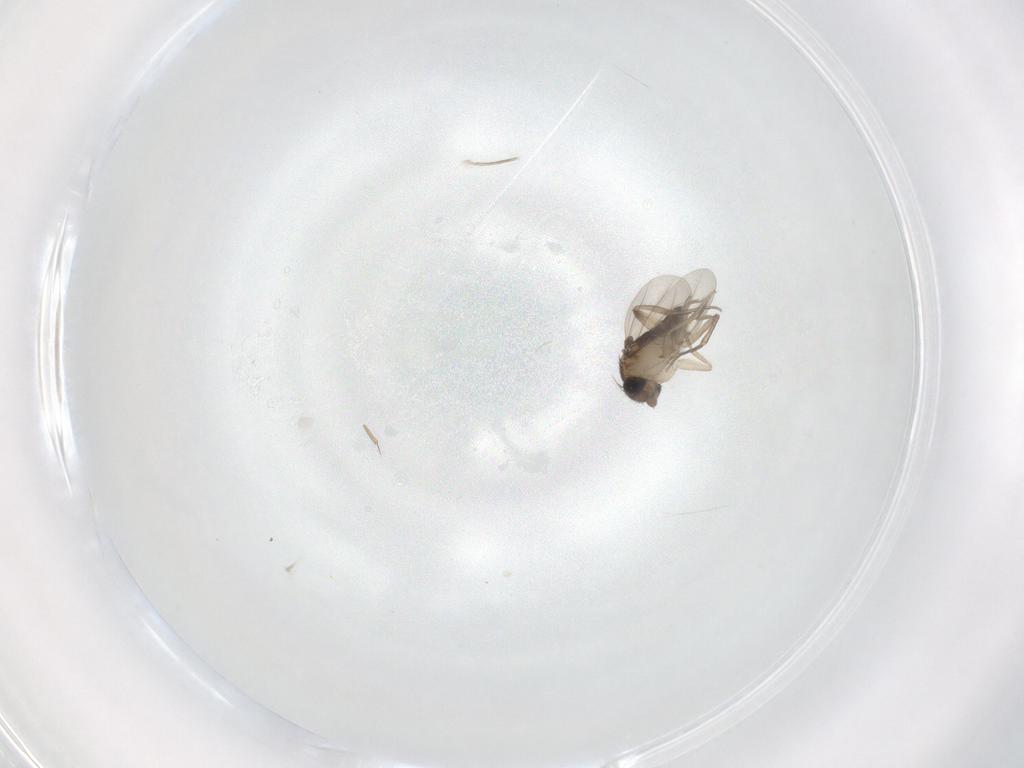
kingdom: Animalia
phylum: Arthropoda
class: Insecta
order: Diptera
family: Phoridae
